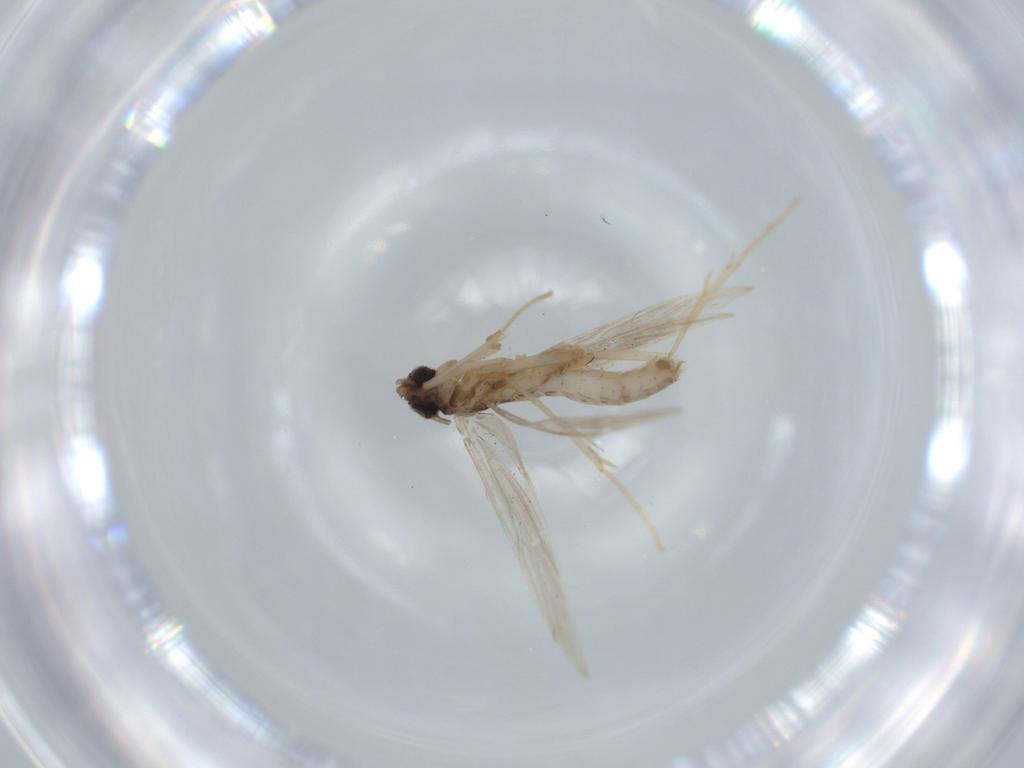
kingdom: Animalia
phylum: Arthropoda
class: Insecta
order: Diptera
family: Chironomidae
